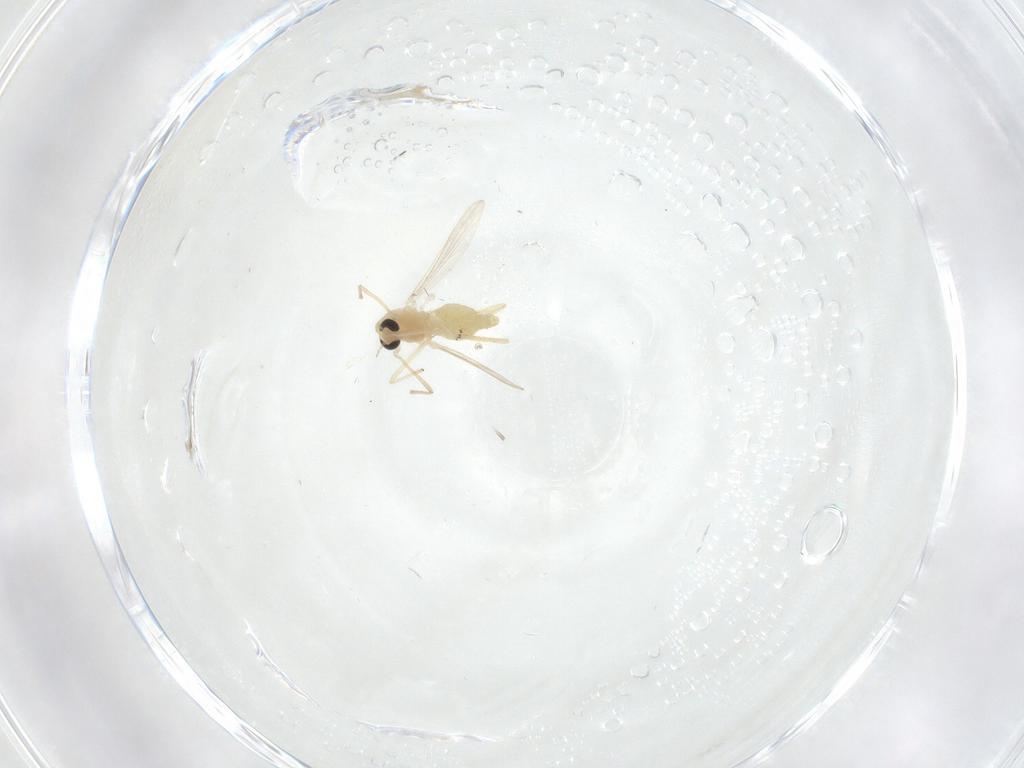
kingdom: Animalia
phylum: Arthropoda
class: Insecta
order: Diptera
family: Chironomidae
